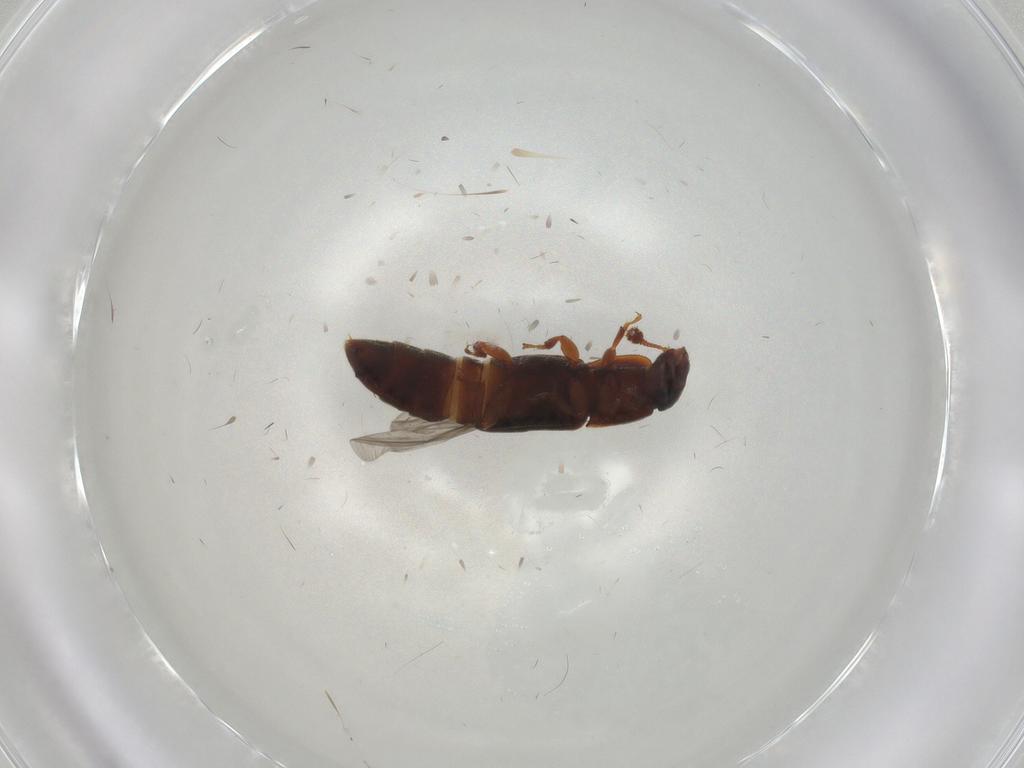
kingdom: Animalia
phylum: Arthropoda
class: Insecta
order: Coleoptera
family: Nitidulidae
